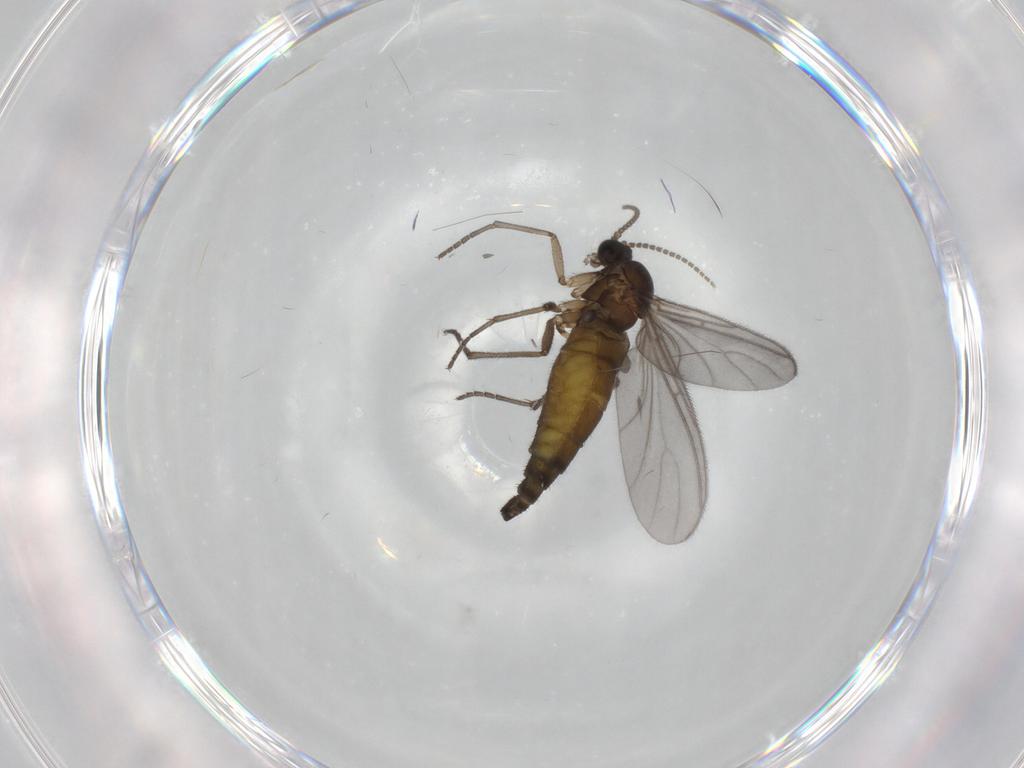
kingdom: Animalia
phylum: Arthropoda
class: Insecta
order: Diptera
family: Sciaridae
